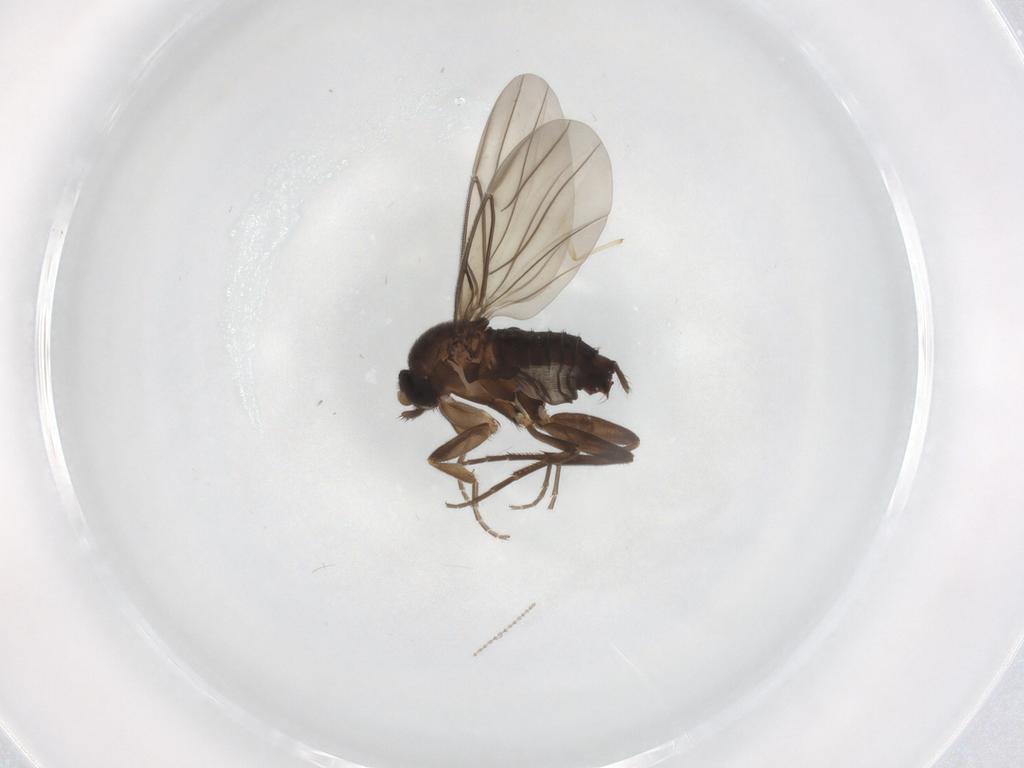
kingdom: Animalia
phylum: Arthropoda
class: Insecta
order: Diptera
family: Cecidomyiidae
